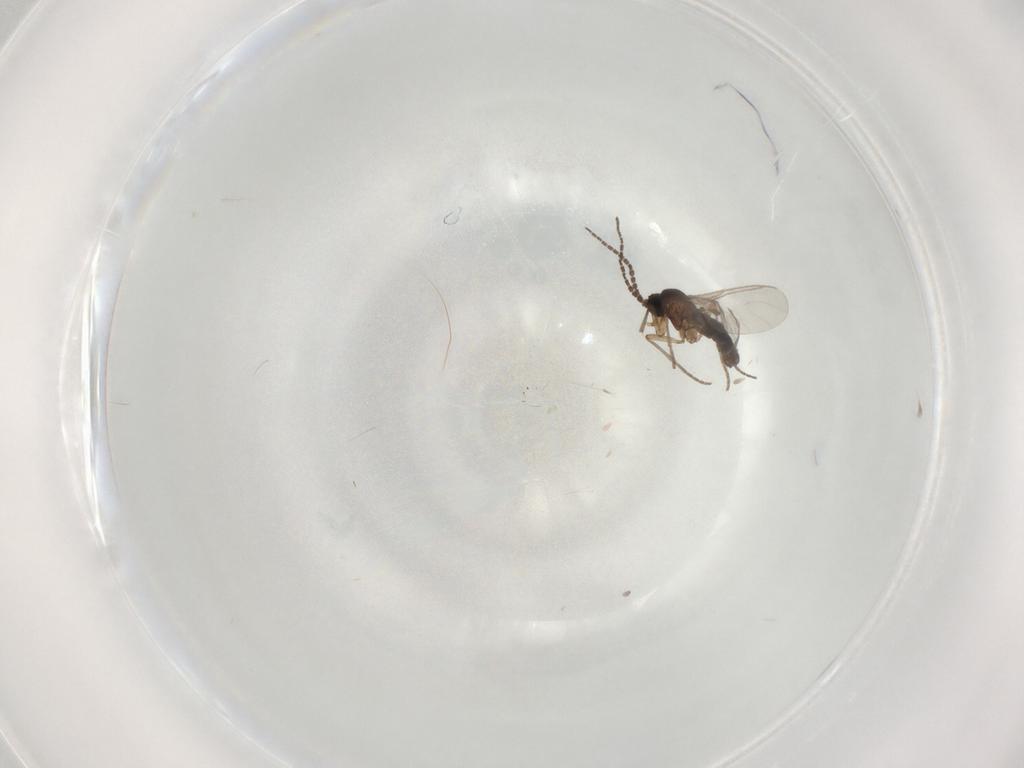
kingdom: Animalia
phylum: Arthropoda
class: Insecta
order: Diptera
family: Sciaridae
